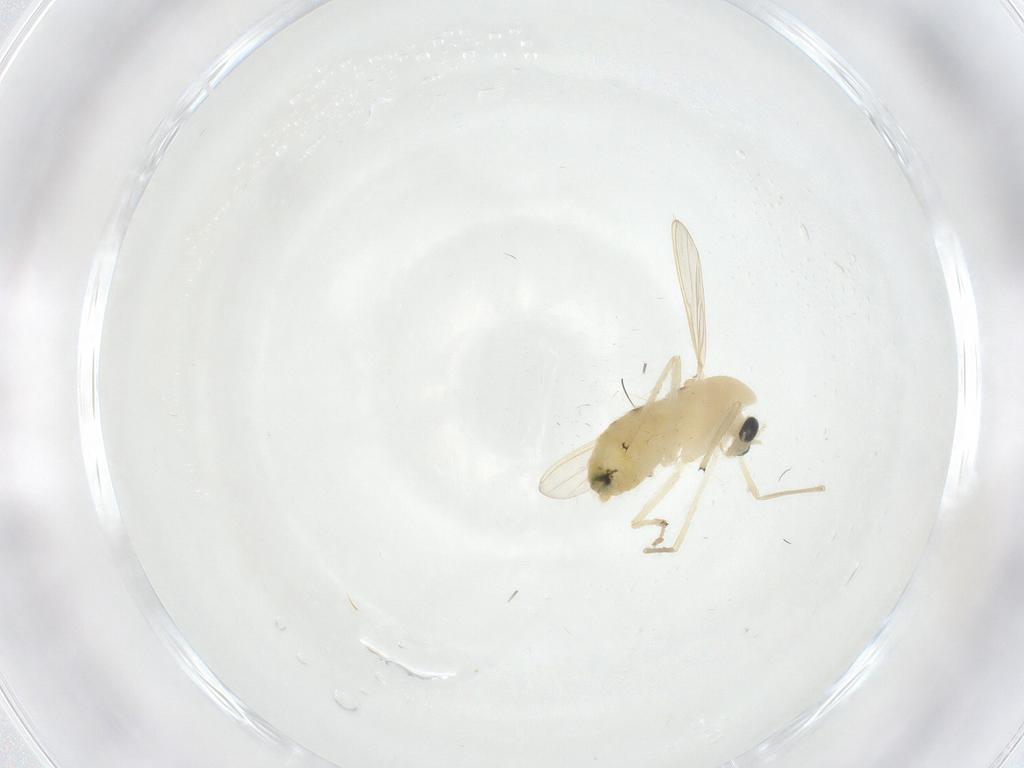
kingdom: Animalia
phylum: Arthropoda
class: Insecta
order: Diptera
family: Chironomidae
